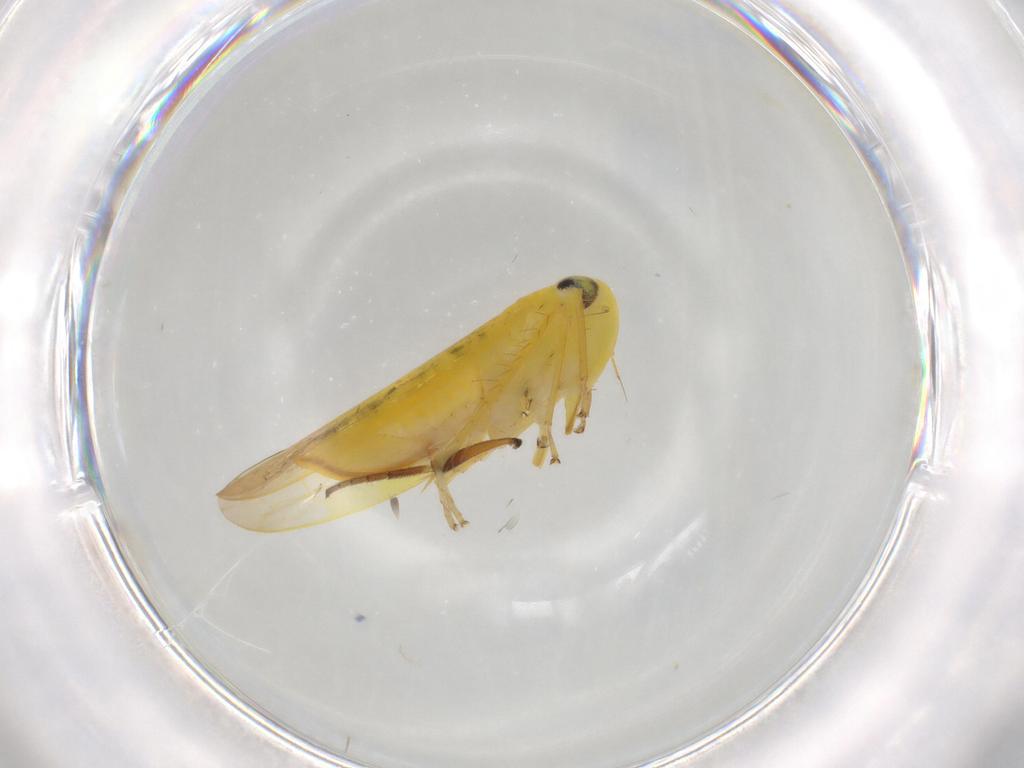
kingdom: Animalia
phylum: Arthropoda
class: Insecta
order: Hemiptera
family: Cicadellidae
